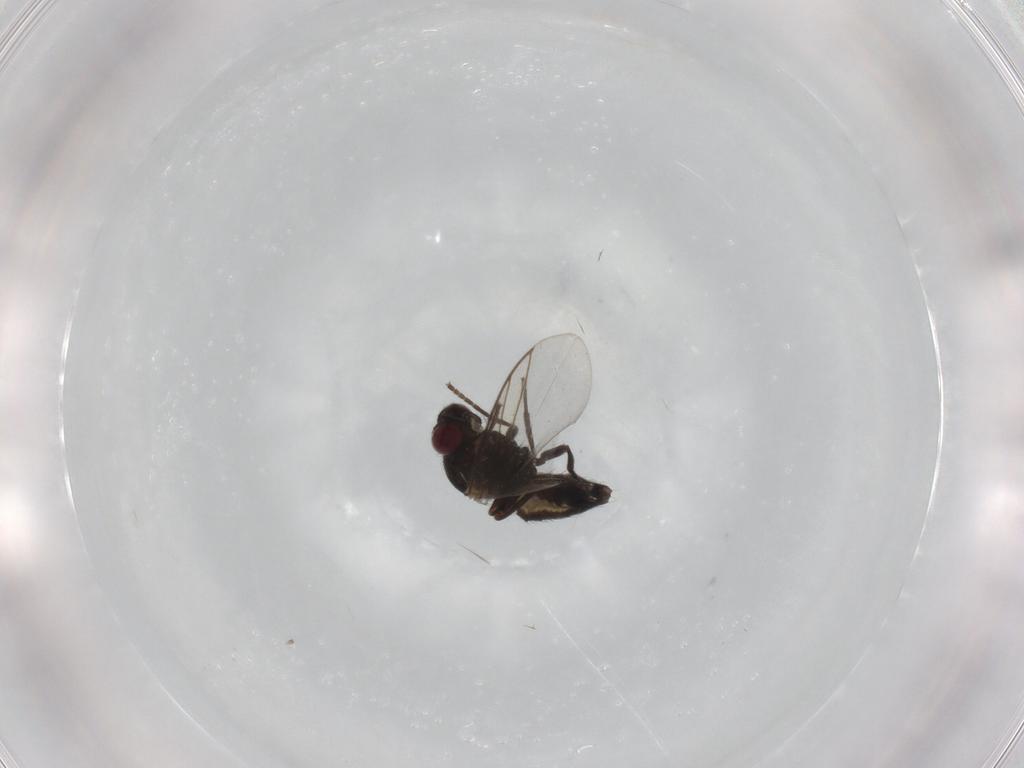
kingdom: Animalia
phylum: Arthropoda
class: Insecta
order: Diptera
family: Agromyzidae
